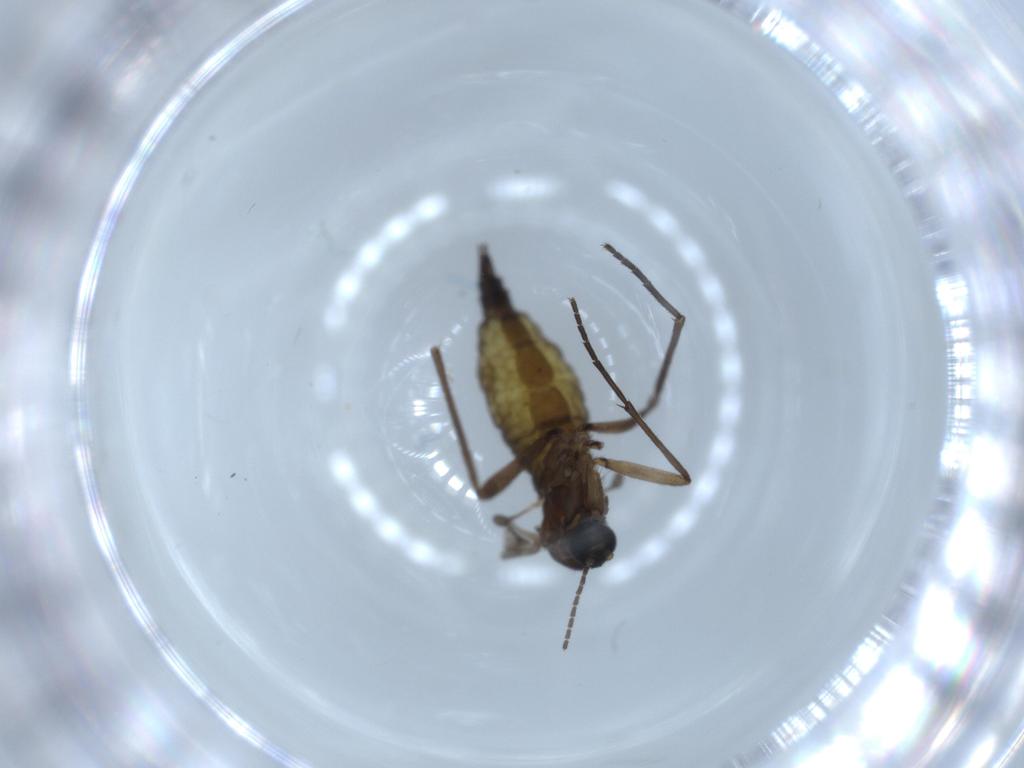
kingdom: Animalia
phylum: Arthropoda
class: Insecta
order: Diptera
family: Sciaridae
